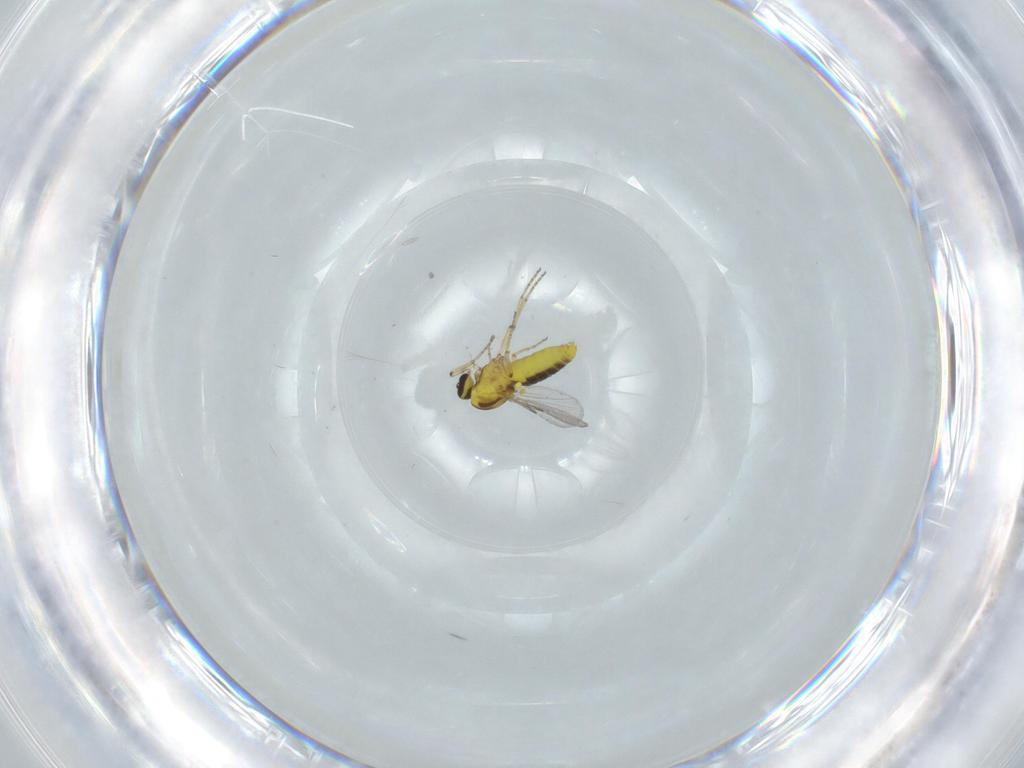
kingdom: Animalia
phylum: Arthropoda
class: Insecta
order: Diptera
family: Ceratopogonidae
